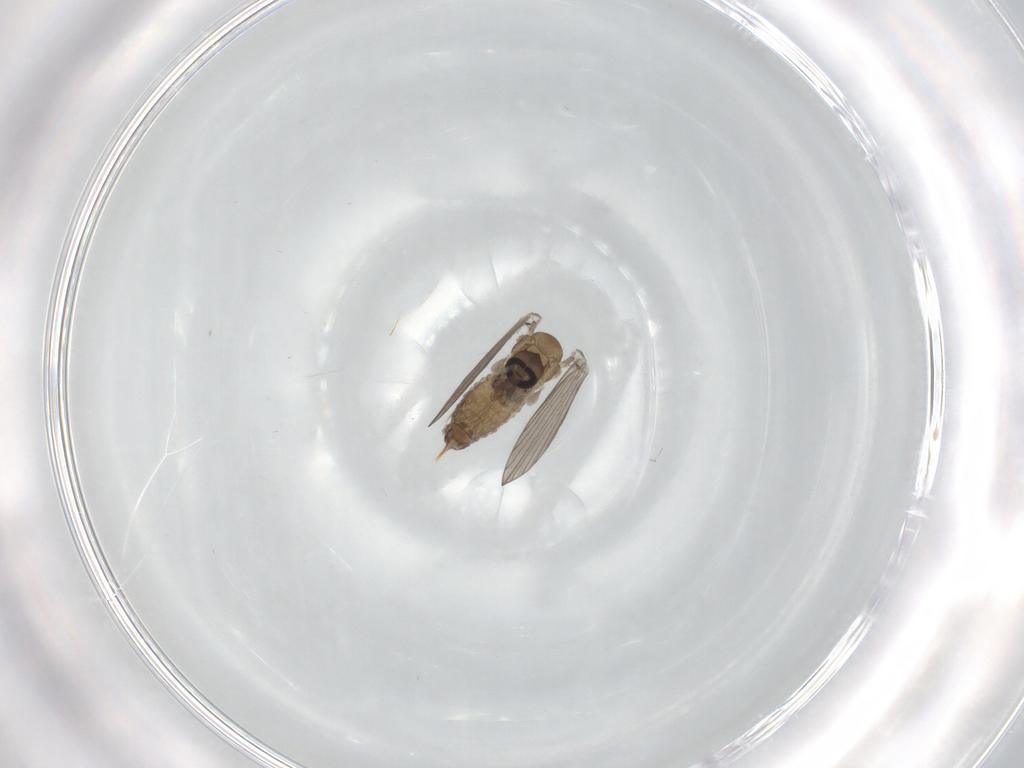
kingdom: Animalia
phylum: Arthropoda
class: Insecta
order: Diptera
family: Psychodidae
